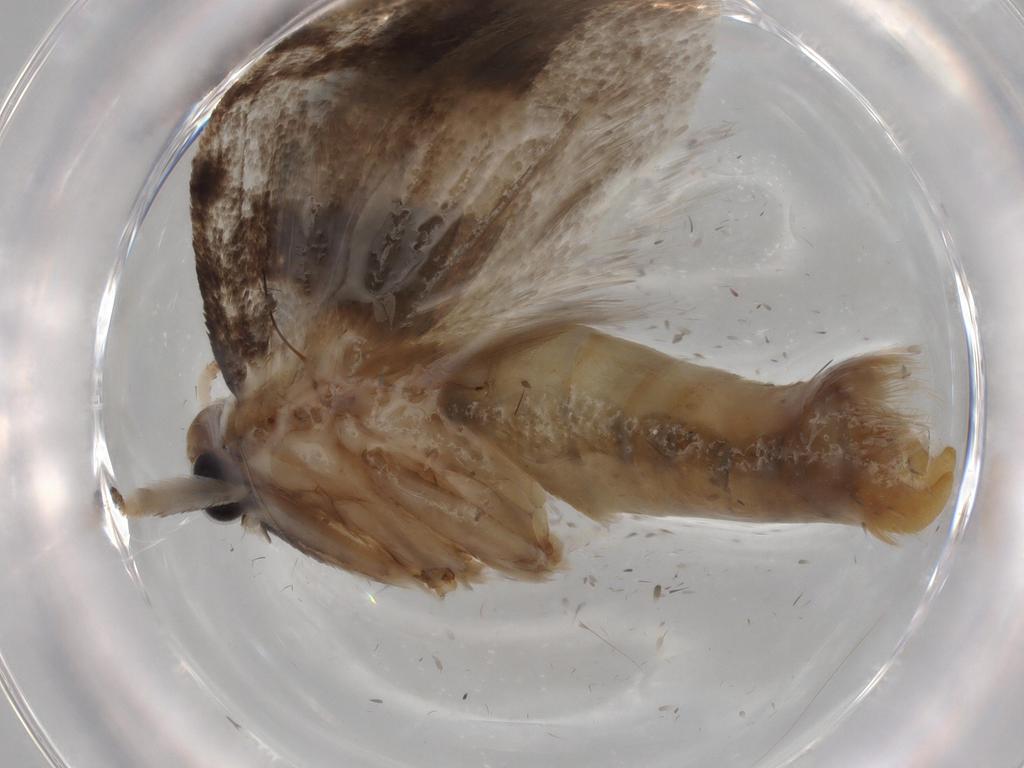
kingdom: Animalia
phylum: Arthropoda
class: Insecta
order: Lepidoptera
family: Tineidae
